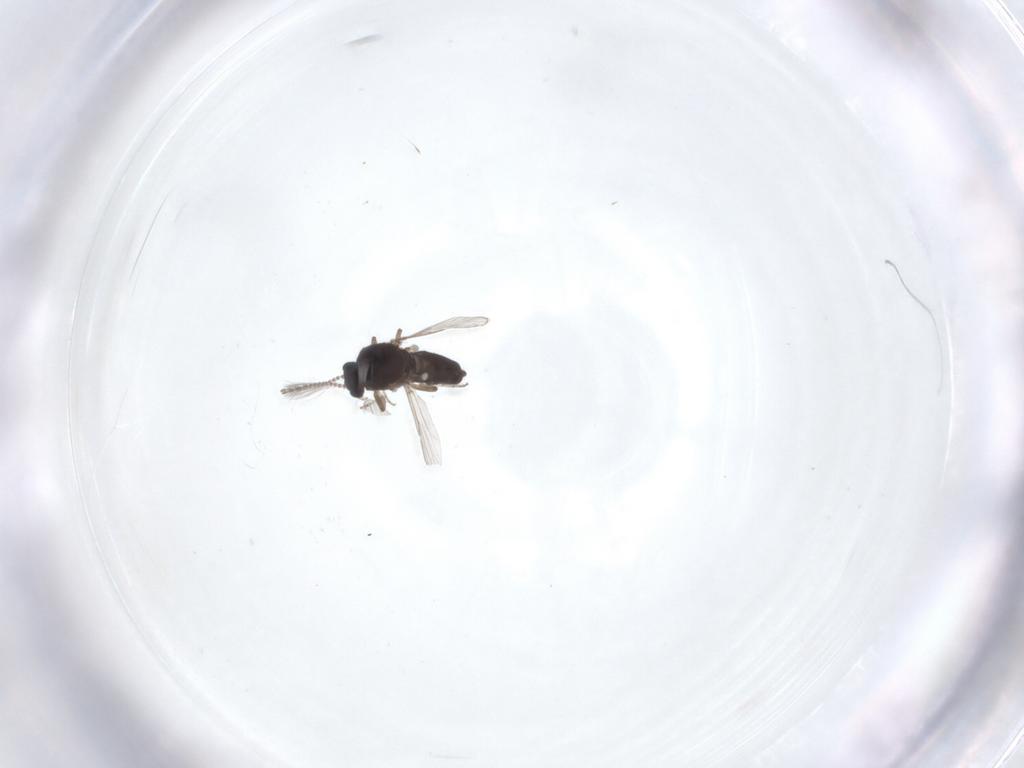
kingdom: Animalia
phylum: Arthropoda
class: Insecta
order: Diptera
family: Ceratopogonidae
